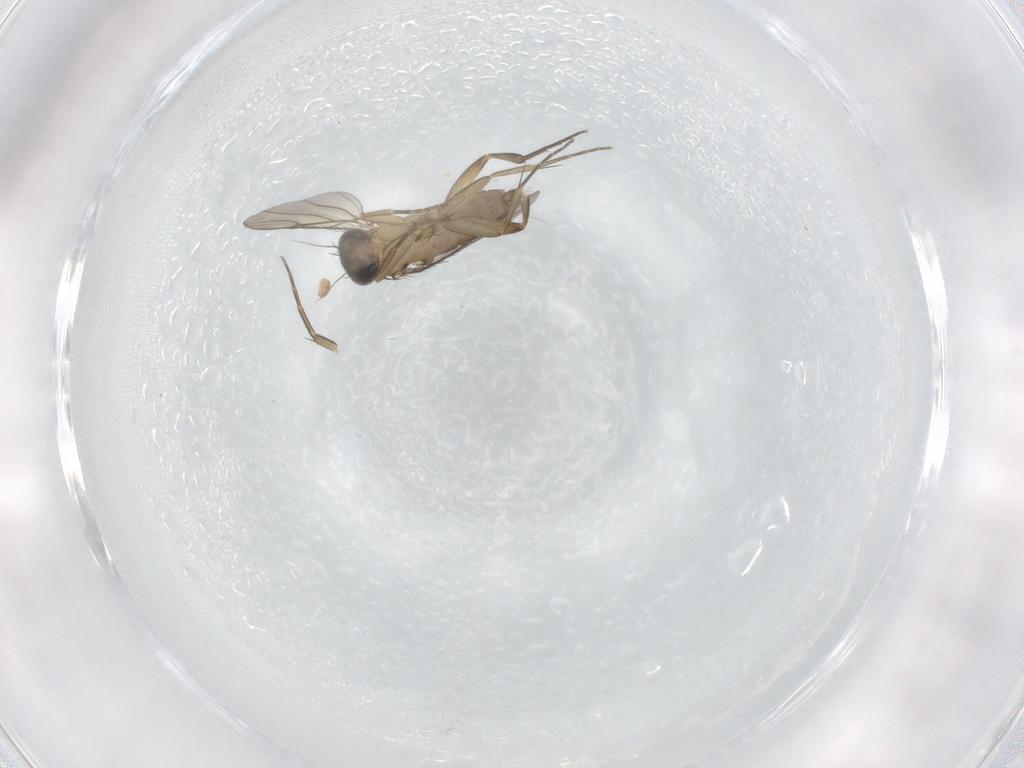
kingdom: Animalia
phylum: Arthropoda
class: Insecta
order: Diptera
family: Phoridae
